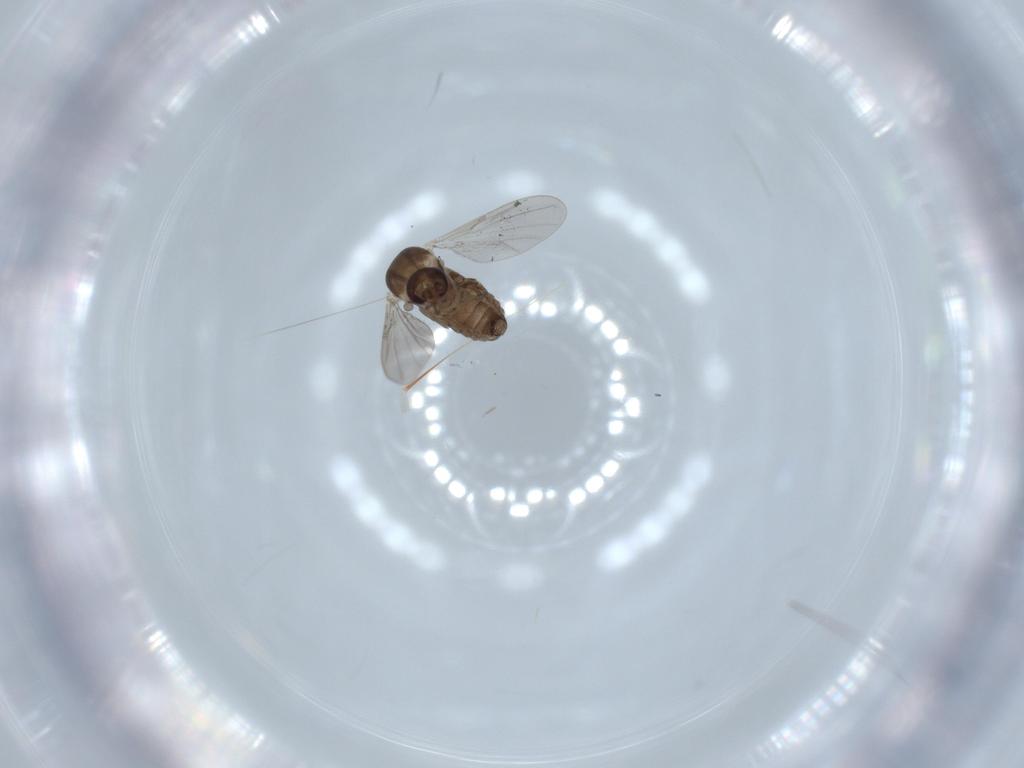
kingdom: Animalia
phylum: Arthropoda
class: Insecta
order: Diptera
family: Ceratopogonidae
